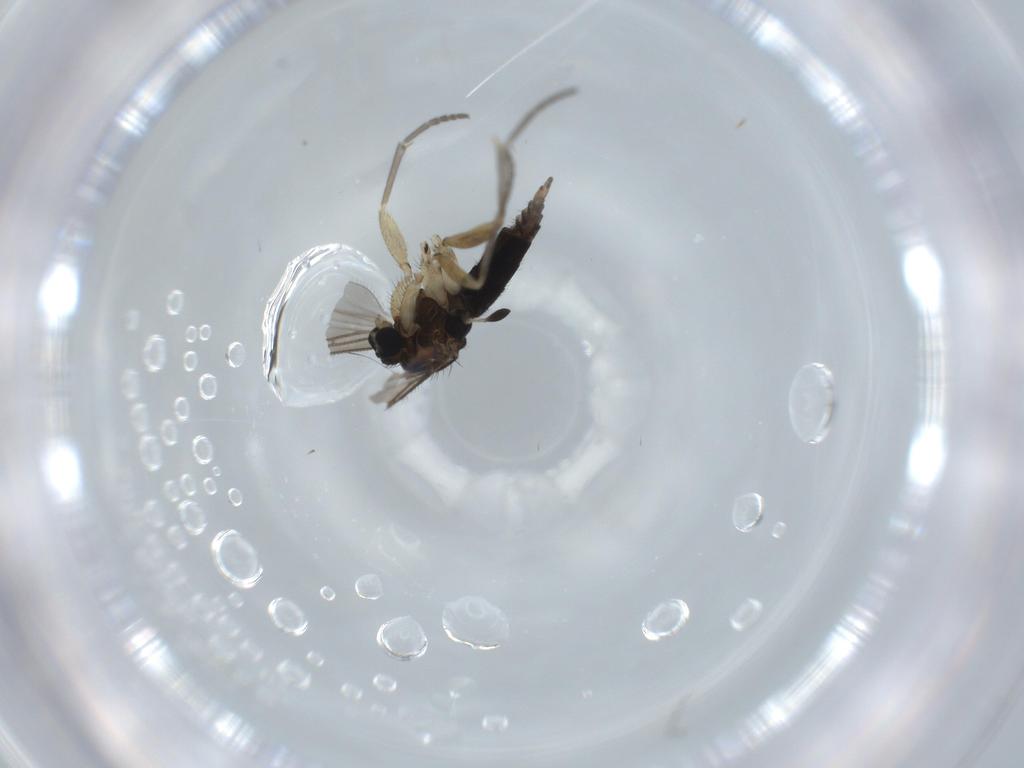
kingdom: Animalia
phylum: Arthropoda
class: Insecta
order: Diptera
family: Sciaridae
